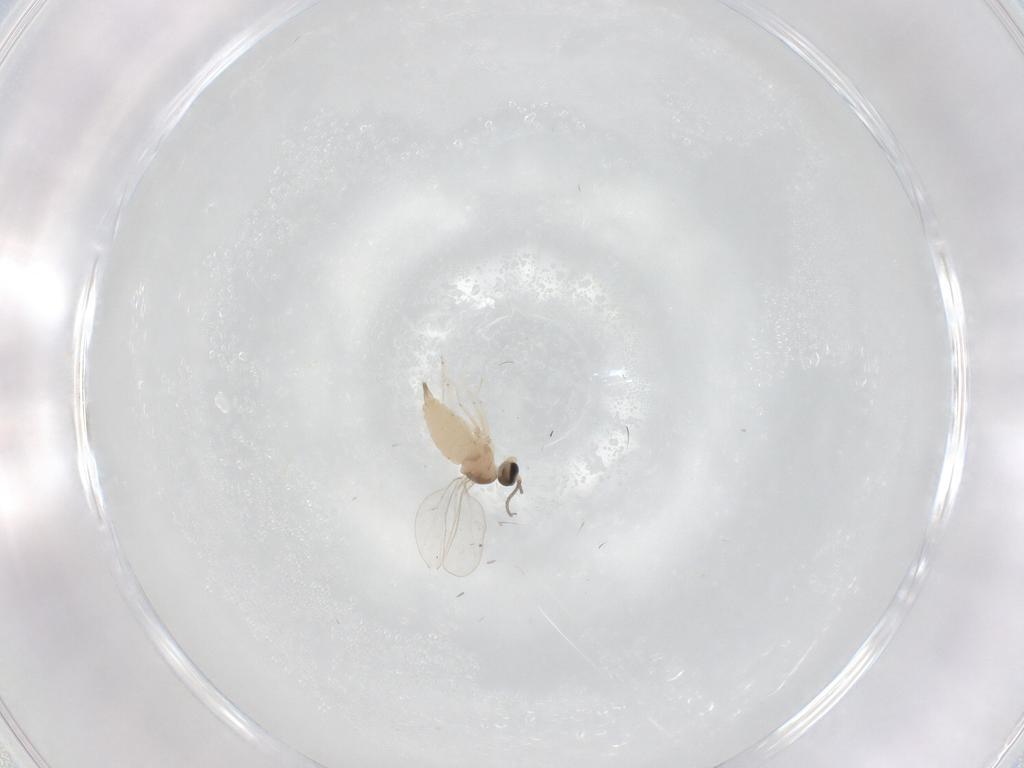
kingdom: Animalia
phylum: Arthropoda
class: Insecta
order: Diptera
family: Cecidomyiidae
